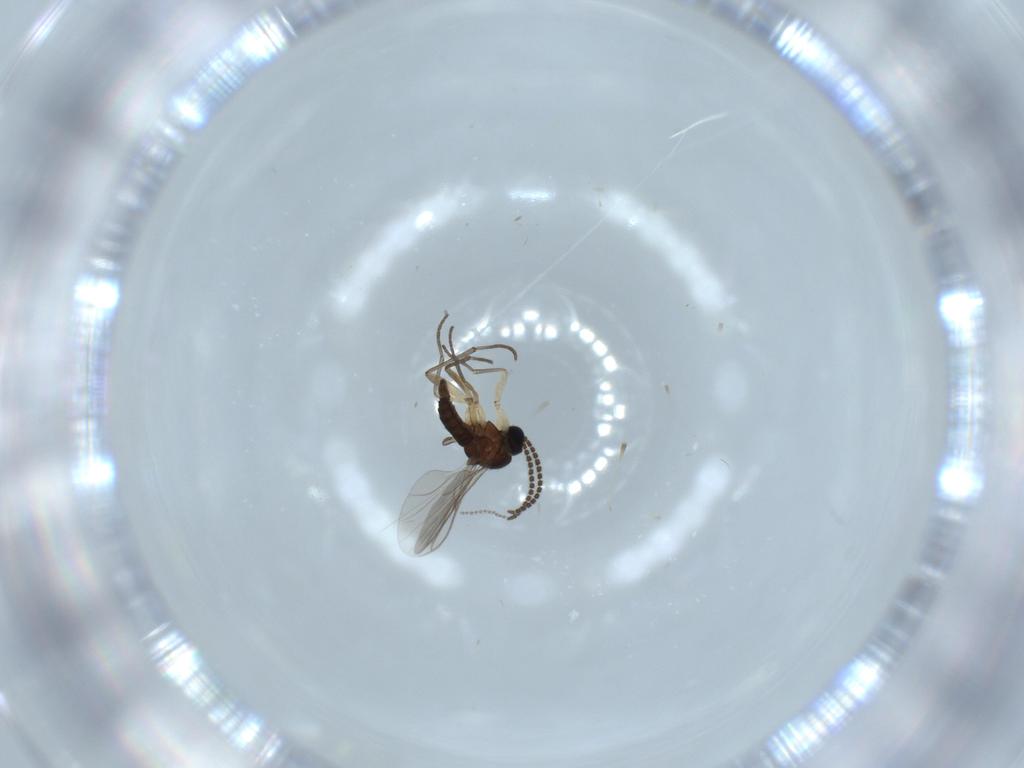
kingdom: Animalia
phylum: Arthropoda
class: Insecta
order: Diptera
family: Sciaridae
